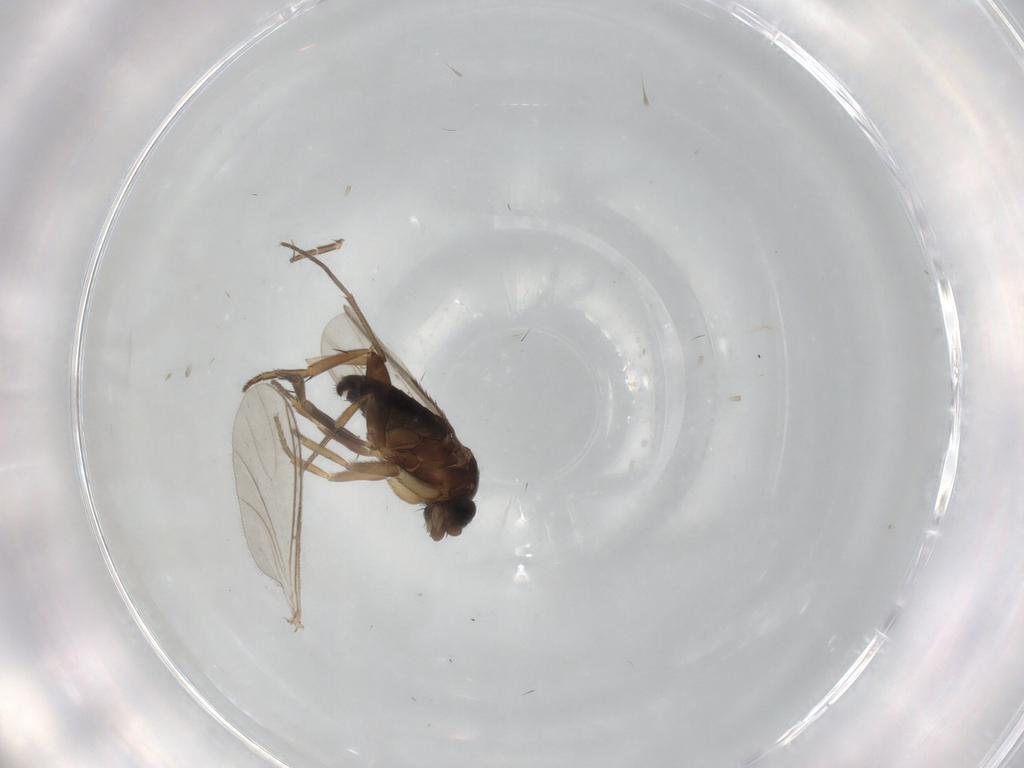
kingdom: Animalia
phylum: Arthropoda
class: Insecta
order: Diptera
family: Phoridae
